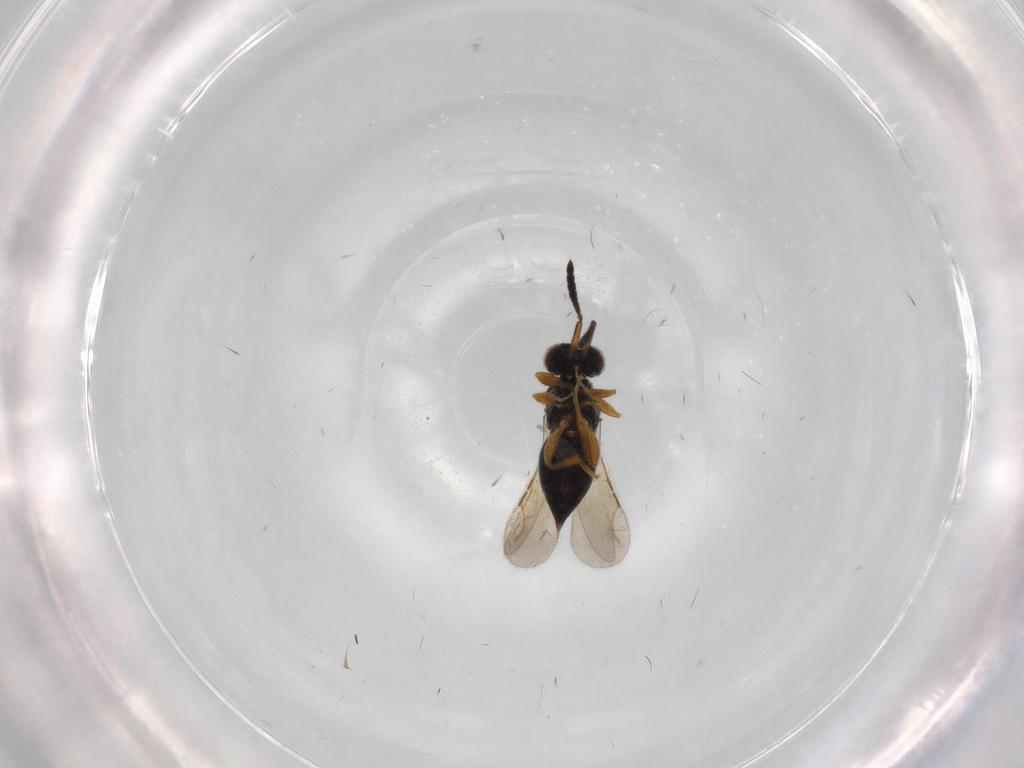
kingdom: Animalia
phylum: Arthropoda
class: Insecta
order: Hymenoptera
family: Ceraphronidae
